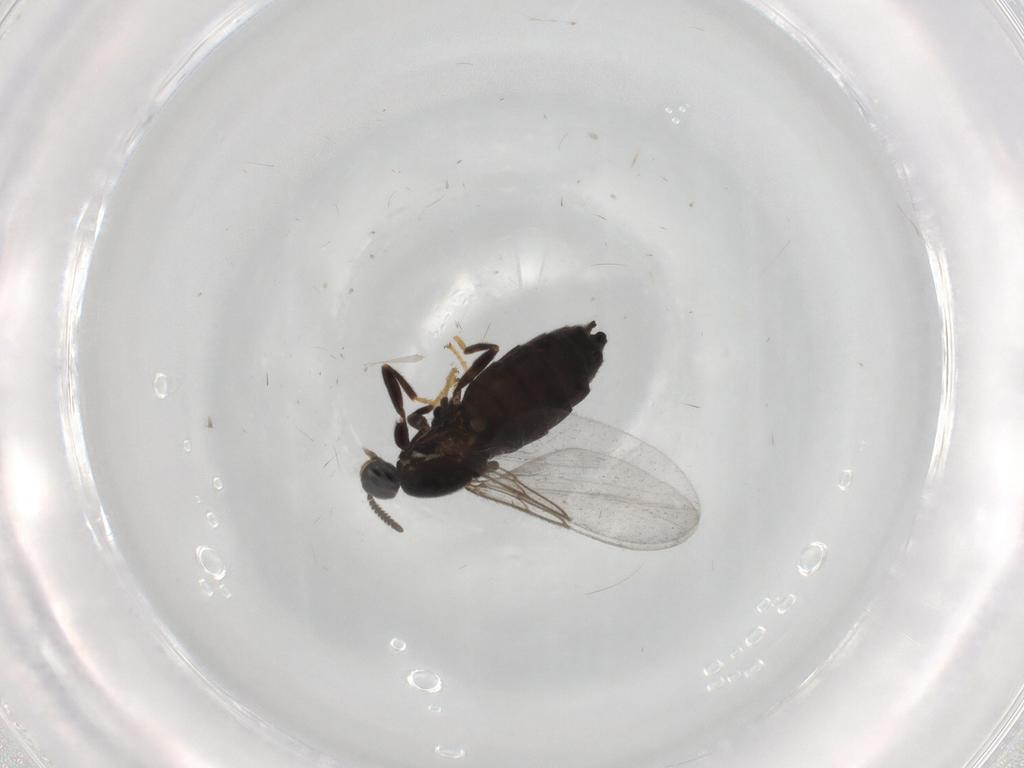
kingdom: Animalia
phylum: Arthropoda
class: Insecta
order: Diptera
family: Scatopsidae
